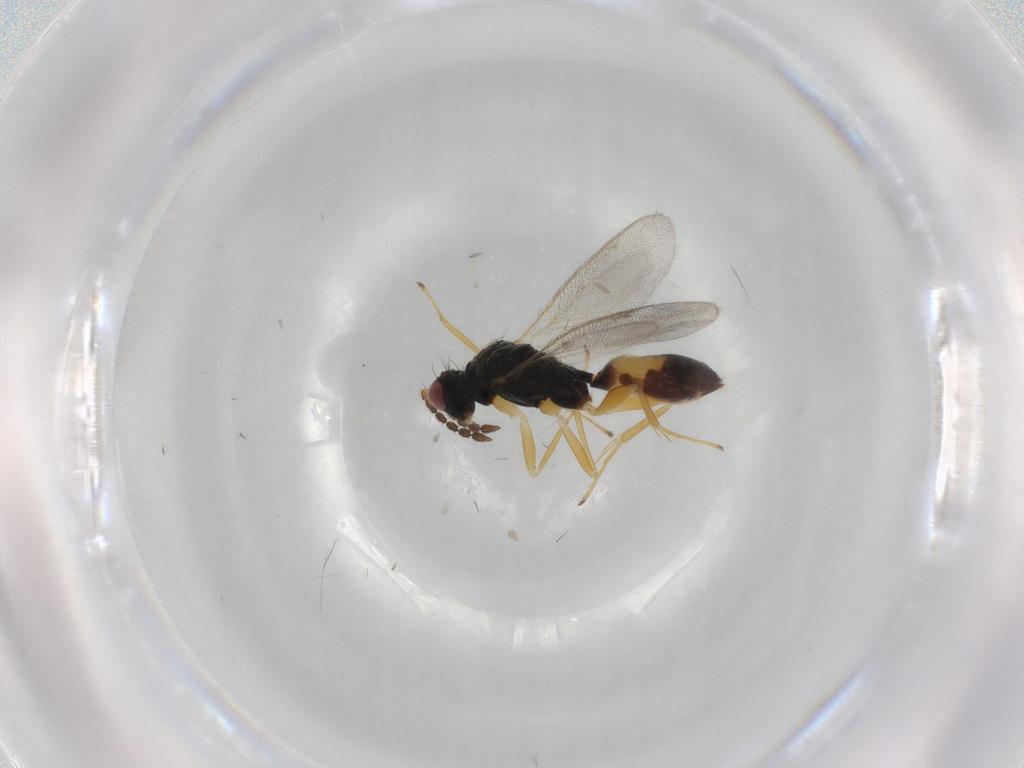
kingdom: Animalia
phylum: Arthropoda
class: Insecta
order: Hymenoptera
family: Eulophidae
